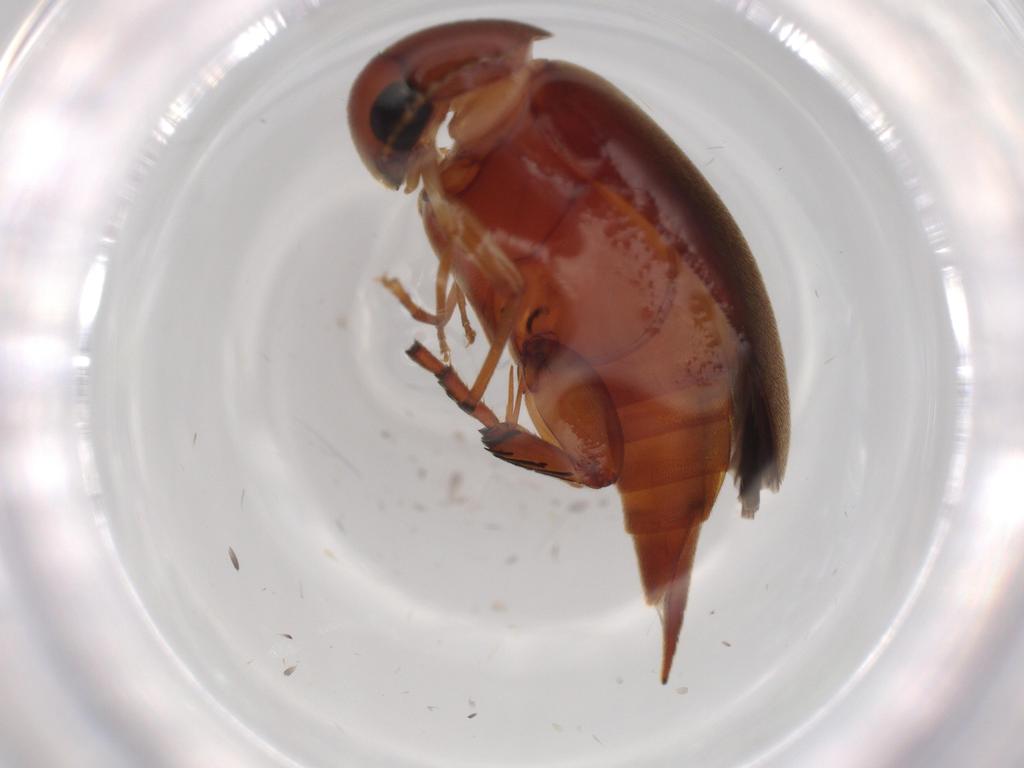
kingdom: Animalia
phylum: Arthropoda
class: Insecta
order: Coleoptera
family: Mordellidae
